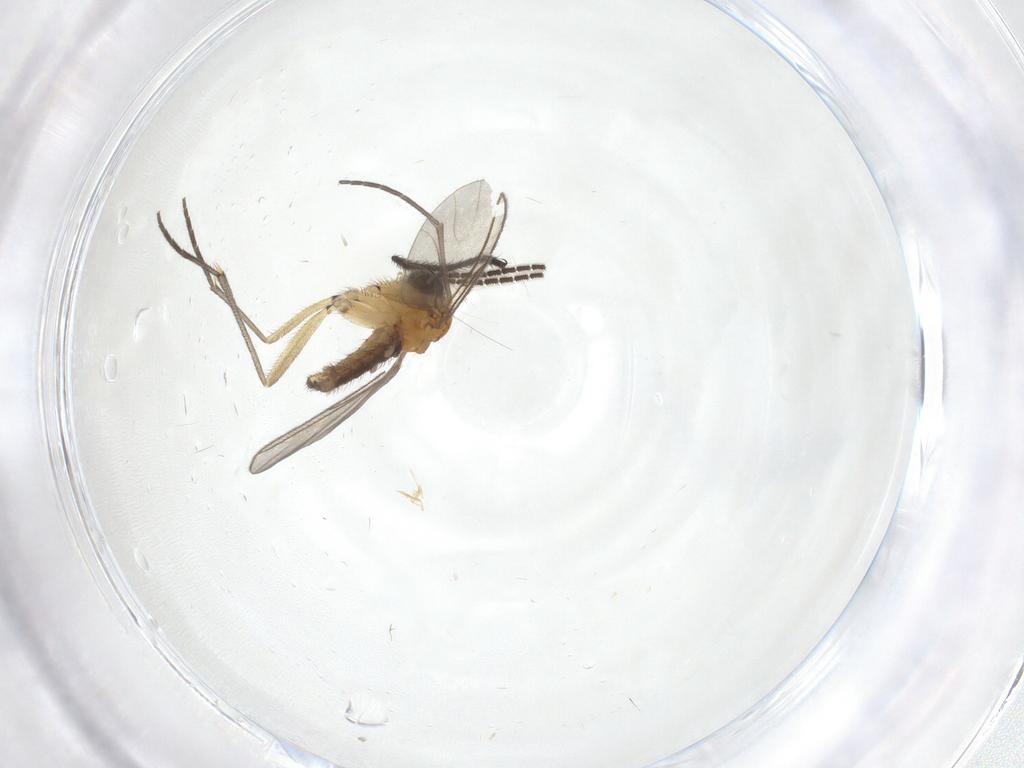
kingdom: Animalia
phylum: Arthropoda
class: Insecta
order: Diptera
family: Sciaridae
